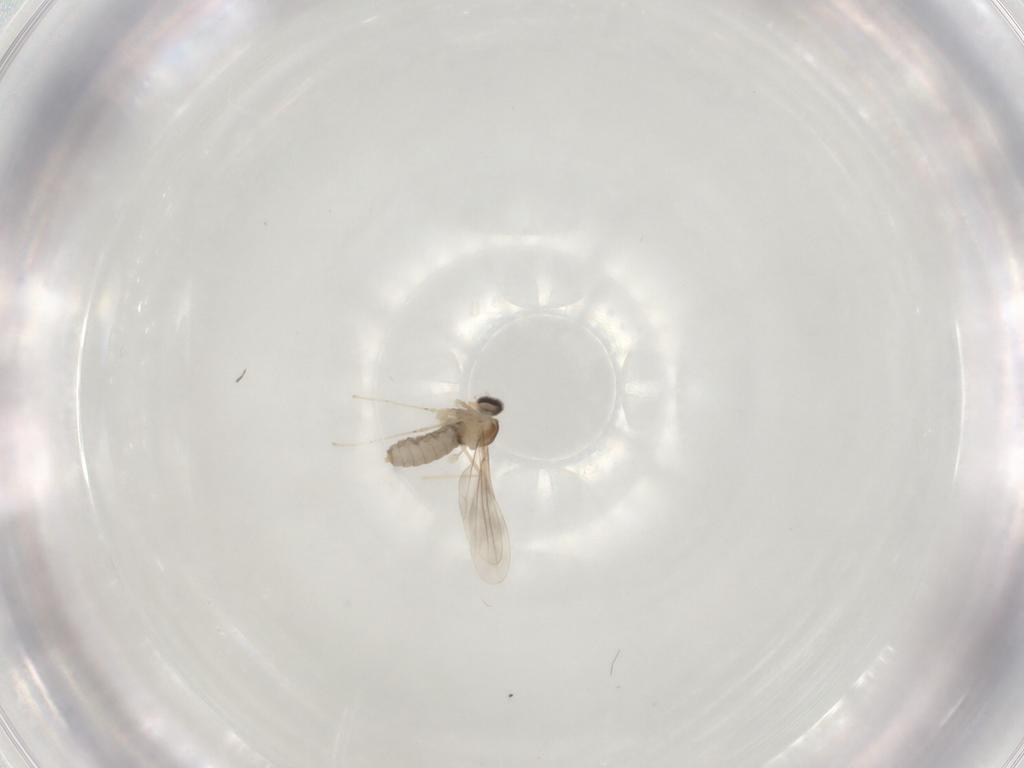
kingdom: Animalia
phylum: Arthropoda
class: Insecta
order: Diptera
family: Cecidomyiidae
